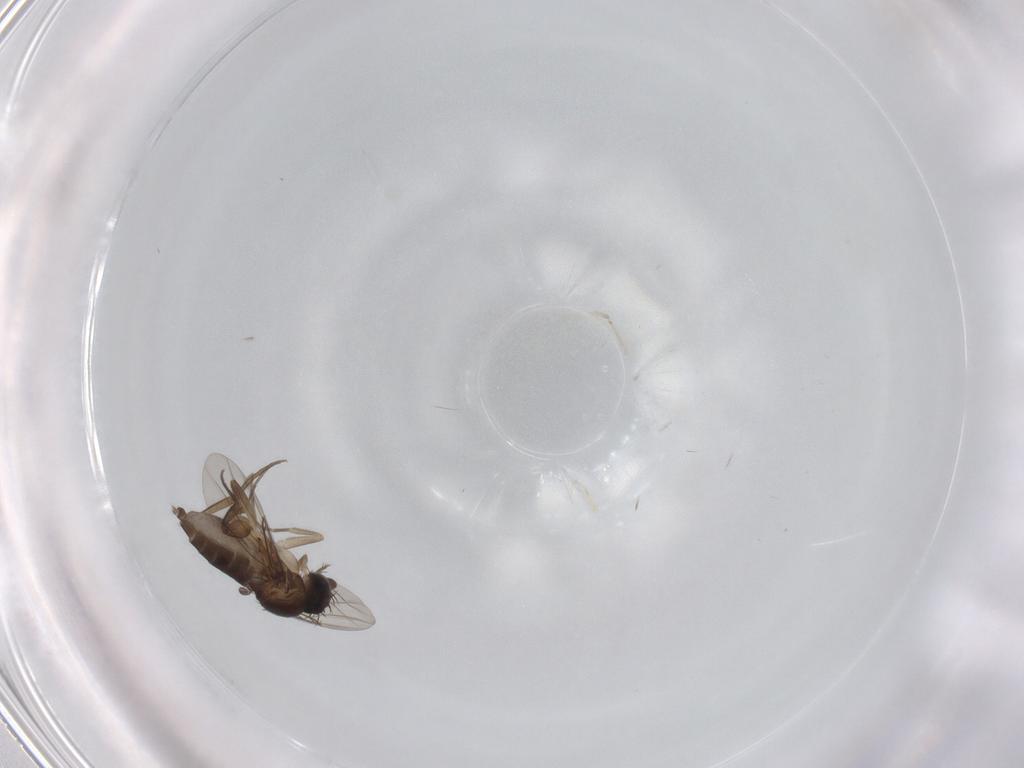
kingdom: Animalia
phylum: Arthropoda
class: Insecta
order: Diptera
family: Phoridae
